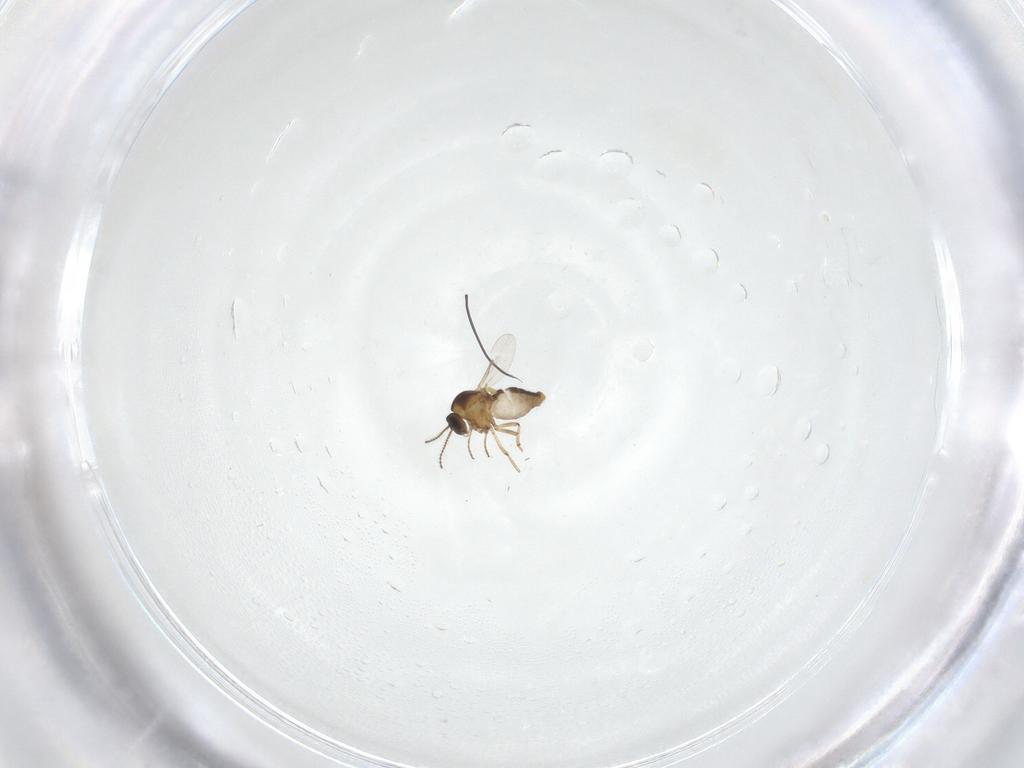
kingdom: Animalia
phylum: Arthropoda
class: Insecta
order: Diptera
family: Ceratopogonidae
